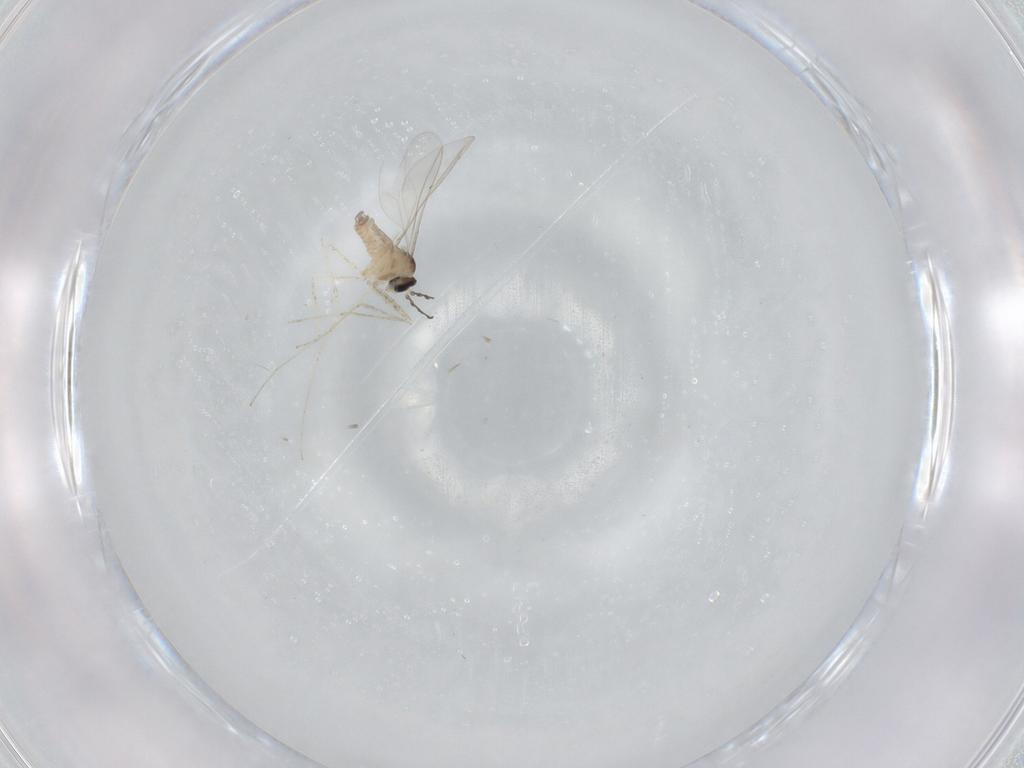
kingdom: Animalia
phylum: Arthropoda
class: Insecta
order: Diptera
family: Cecidomyiidae
